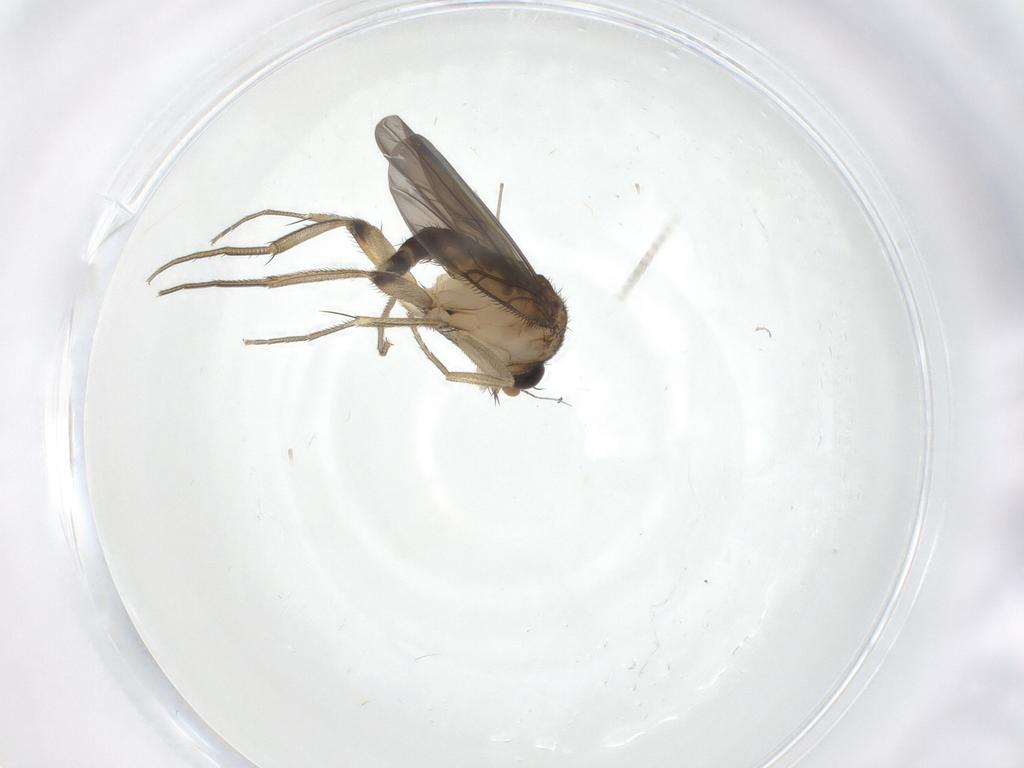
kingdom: Animalia
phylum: Arthropoda
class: Insecta
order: Diptera
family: Phoridae
